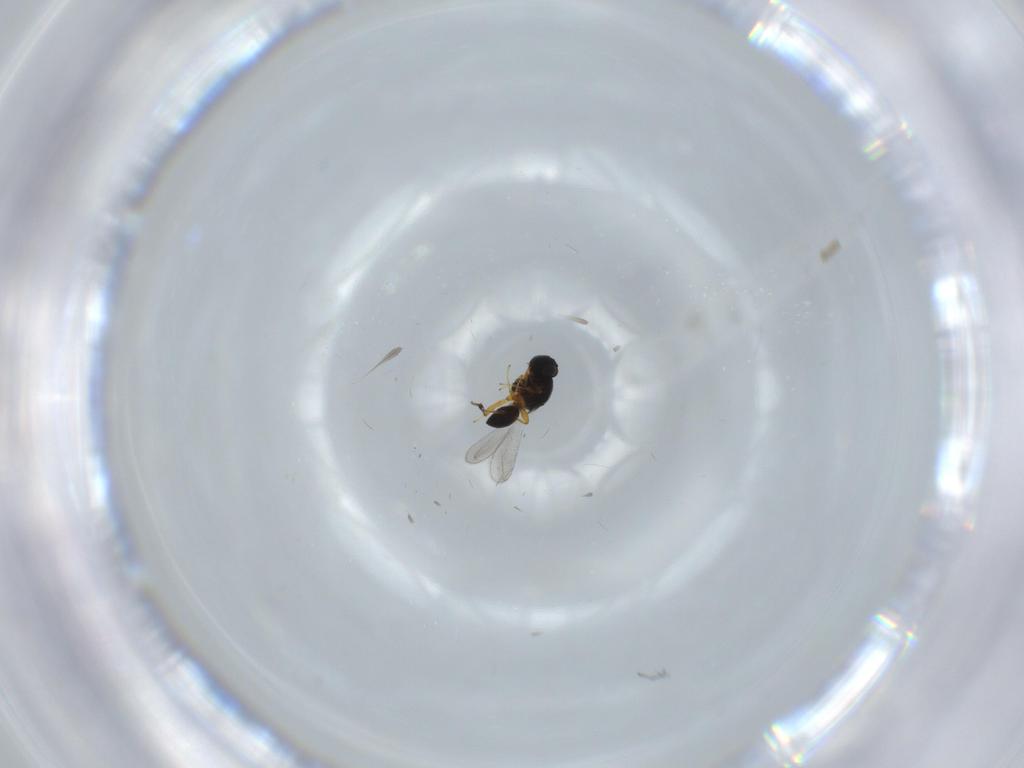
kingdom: Animalia
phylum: Arthropoda
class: Insecta
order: Hymenoptera
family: Platygastridae
